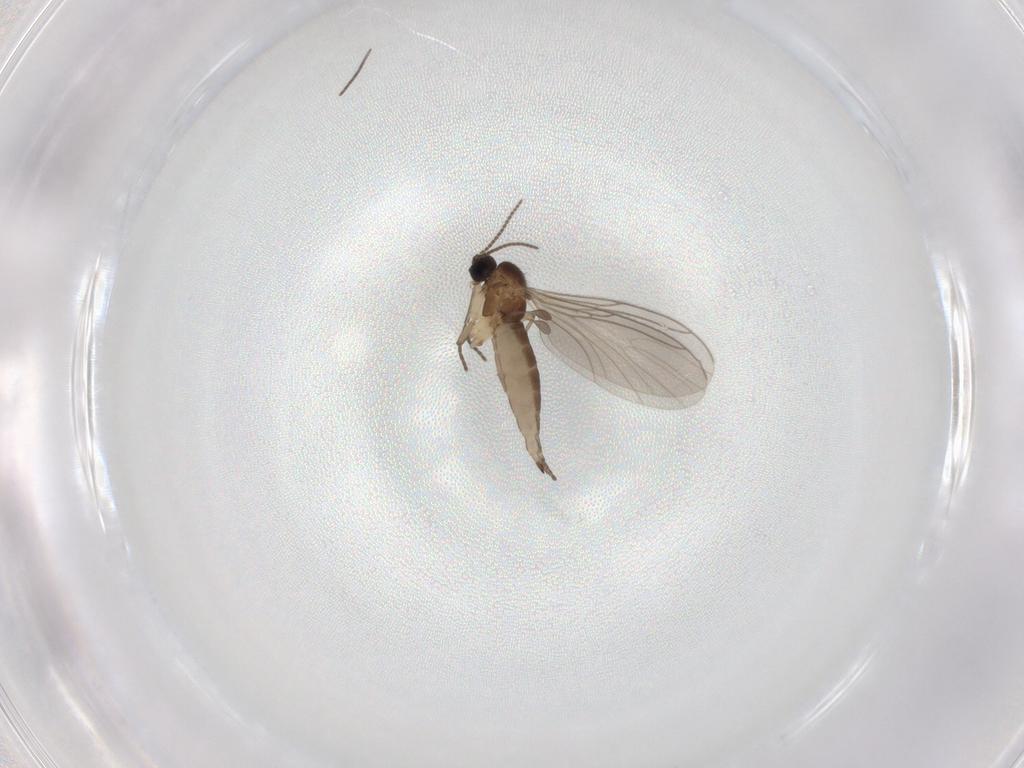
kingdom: Animalia
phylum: Arthropoda
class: Insecta
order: Diptera
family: Sciaridae
